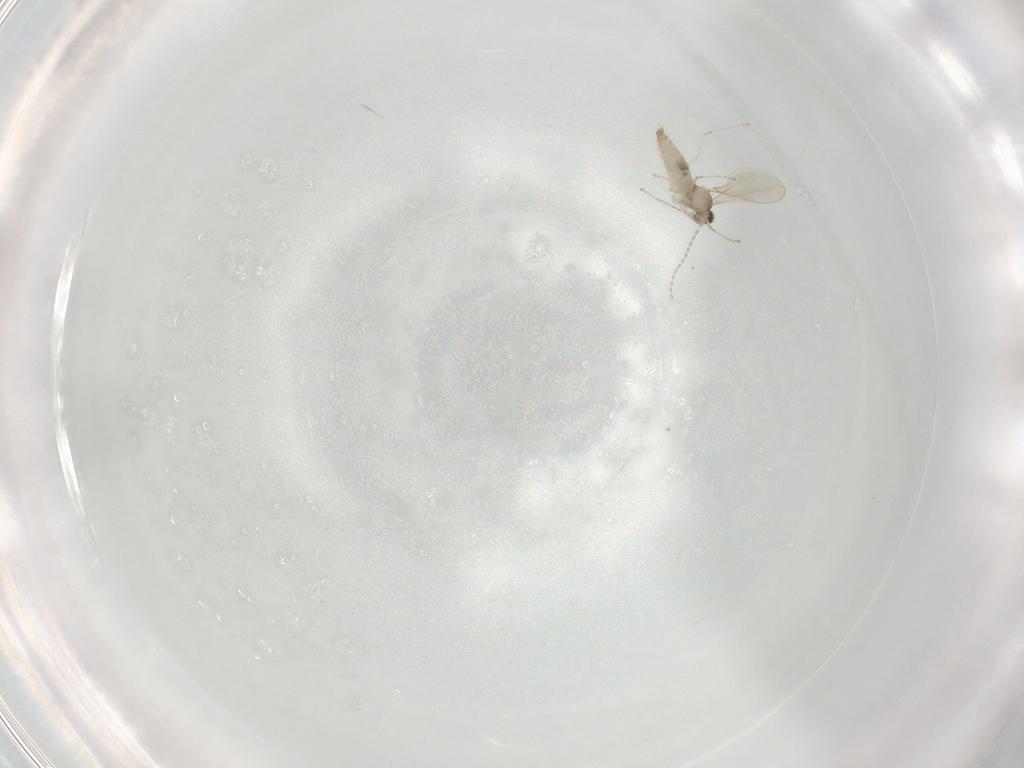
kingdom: Animalia
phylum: Arthropoda
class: Insecta
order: Diptera
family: Cecidomyiidae
